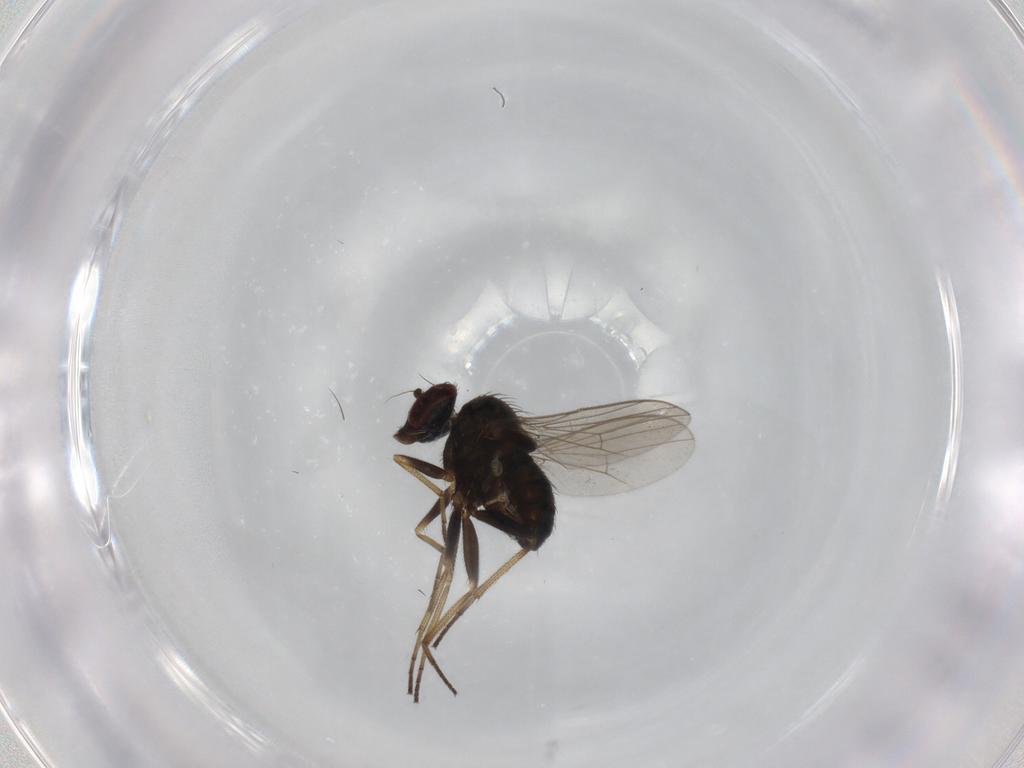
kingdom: Animalia
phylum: Arthropoda
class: Insecta
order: Diptera
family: Dolichopodidae
